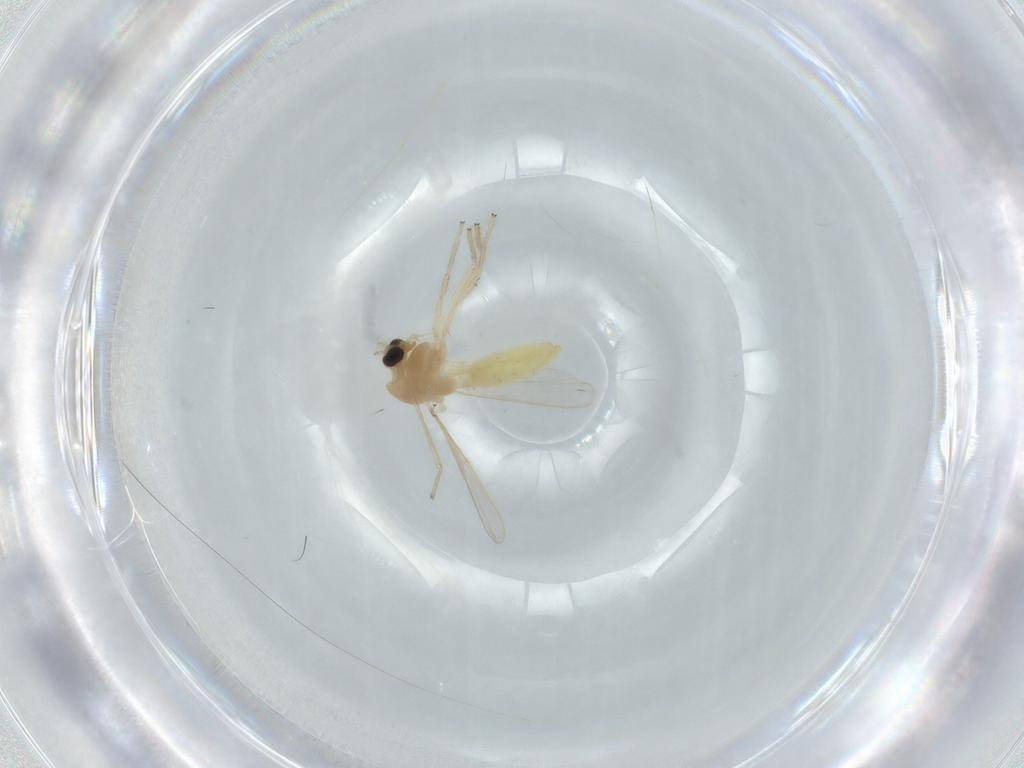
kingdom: Animalia
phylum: Arthropoda
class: Insecta
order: Diptera
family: Chironomidae
